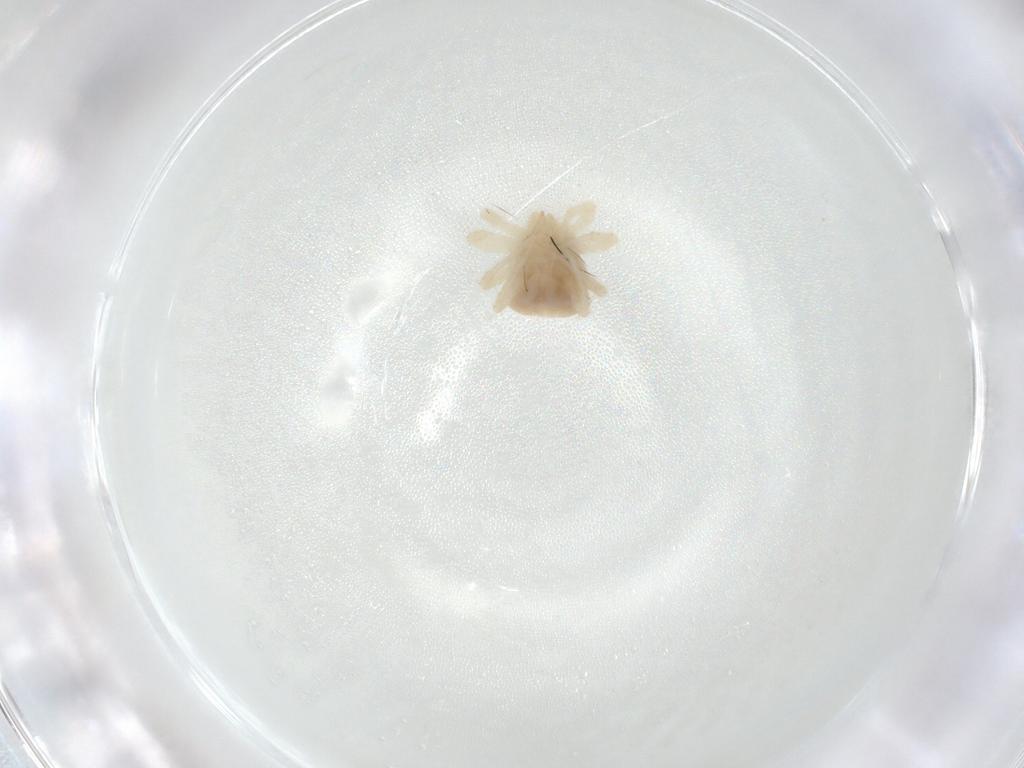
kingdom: Animalia
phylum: Arthropoda
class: Arachnida
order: Trombidiformes
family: Anystidae
